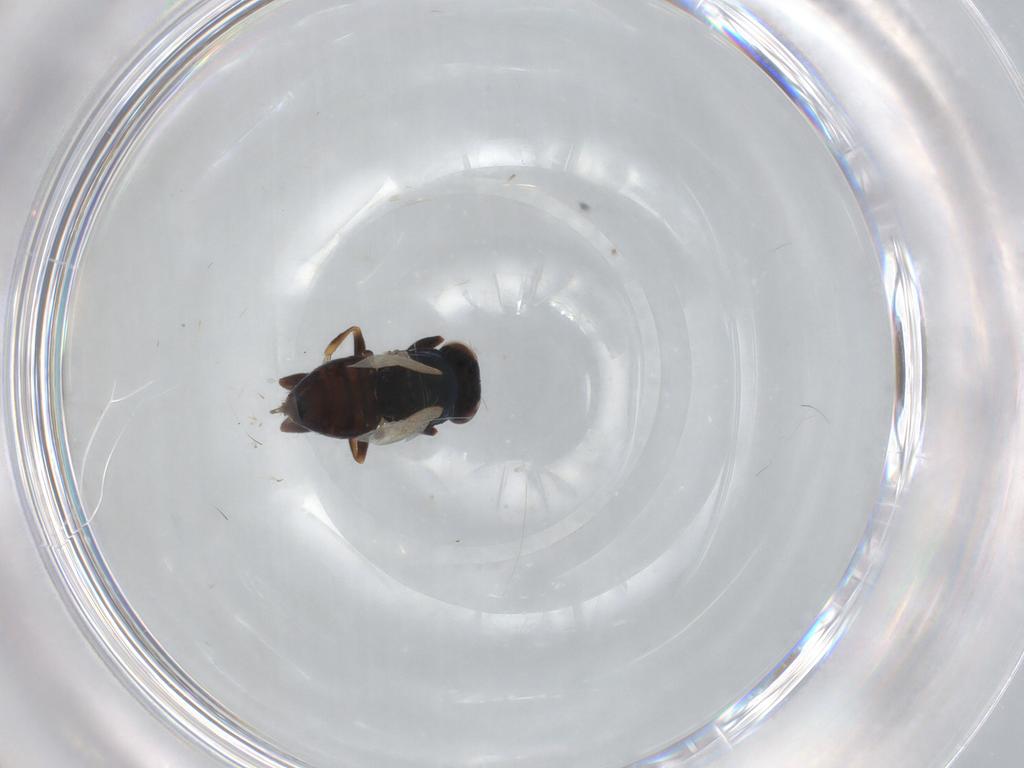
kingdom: Animalia
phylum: Arthropoda
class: Insecta
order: Diptera
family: Chloropidae
